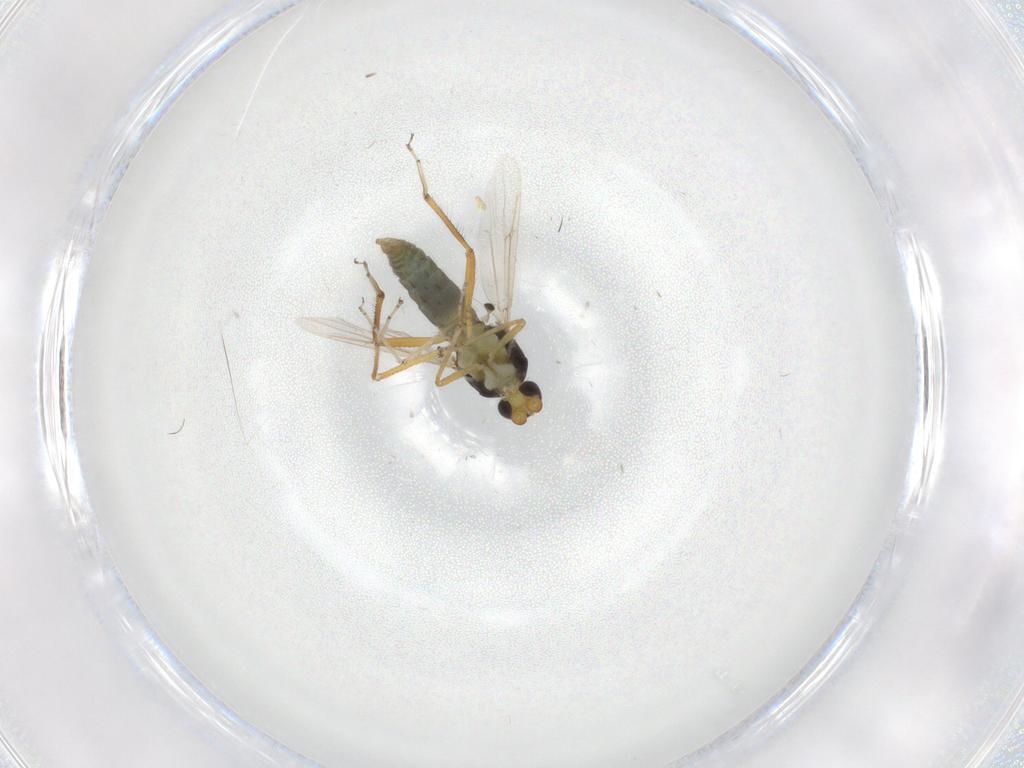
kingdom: Animalia
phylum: Arthropoda
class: Insecta
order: Diptera
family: Ceratopogonidae
